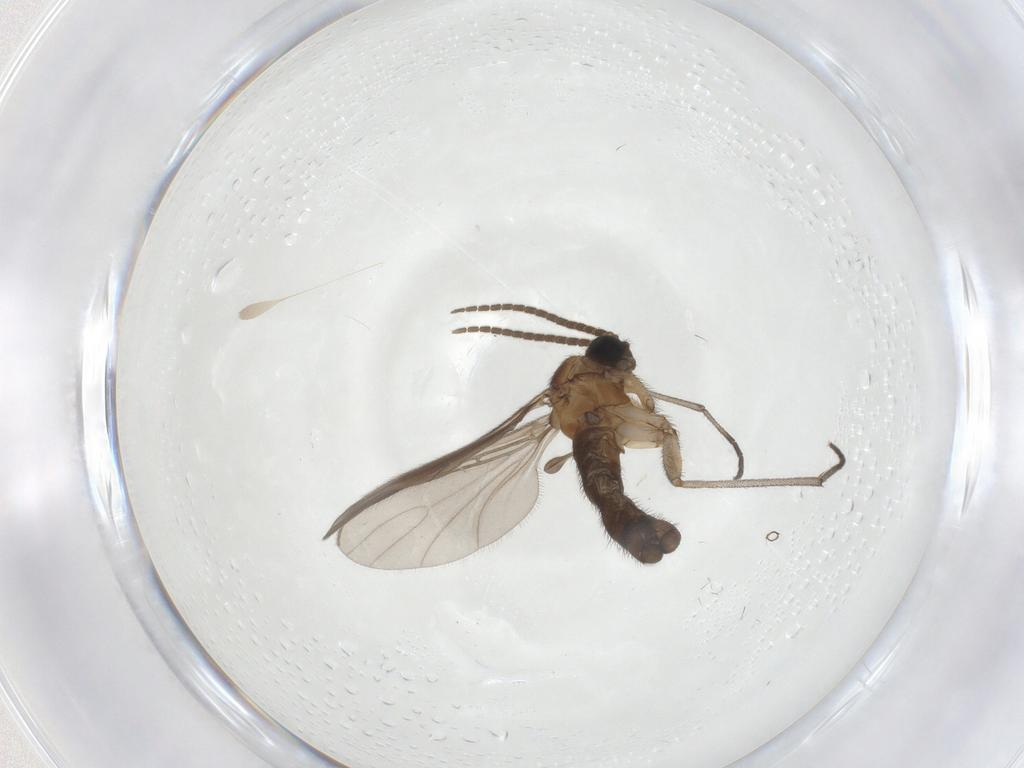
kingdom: Animalia
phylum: Arthropoda
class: Insecta
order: Diptera
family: Sciaridae
